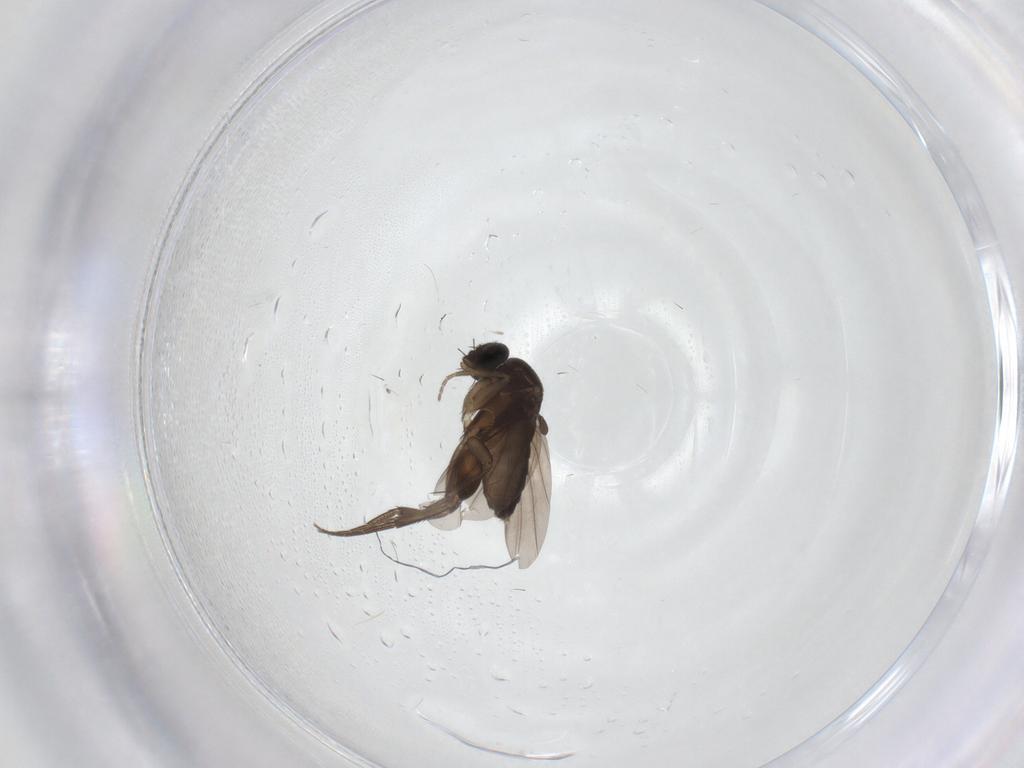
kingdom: Animalia
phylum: Arthropoda
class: Insecta
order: Diptera
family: Phoridae
